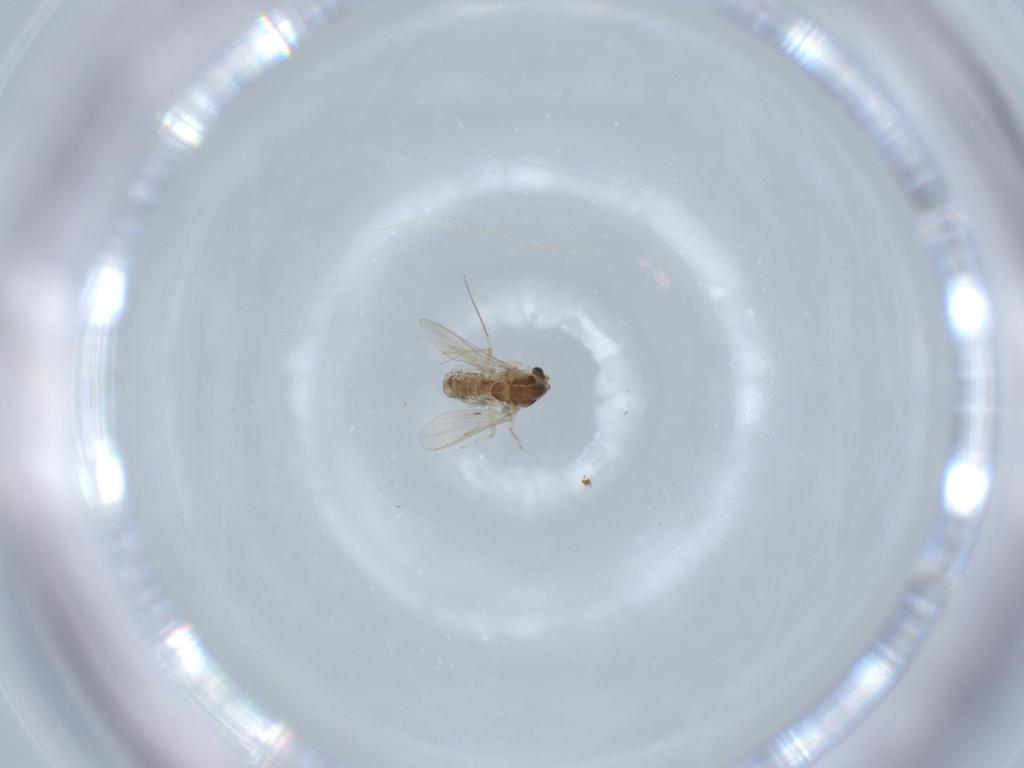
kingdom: Animalia
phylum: Arthropoda
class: Insecta
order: Diptera
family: Chironomidae
